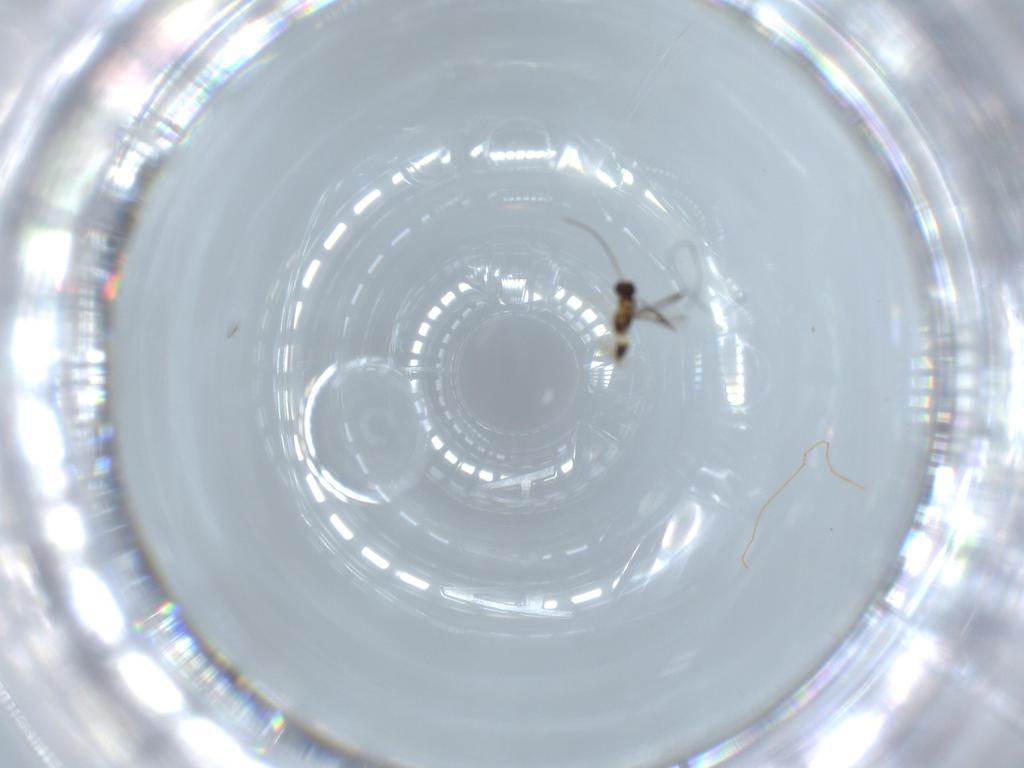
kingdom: Animalia
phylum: Arthropoda
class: Insecta
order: Hymenoptera
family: Mymaridae
